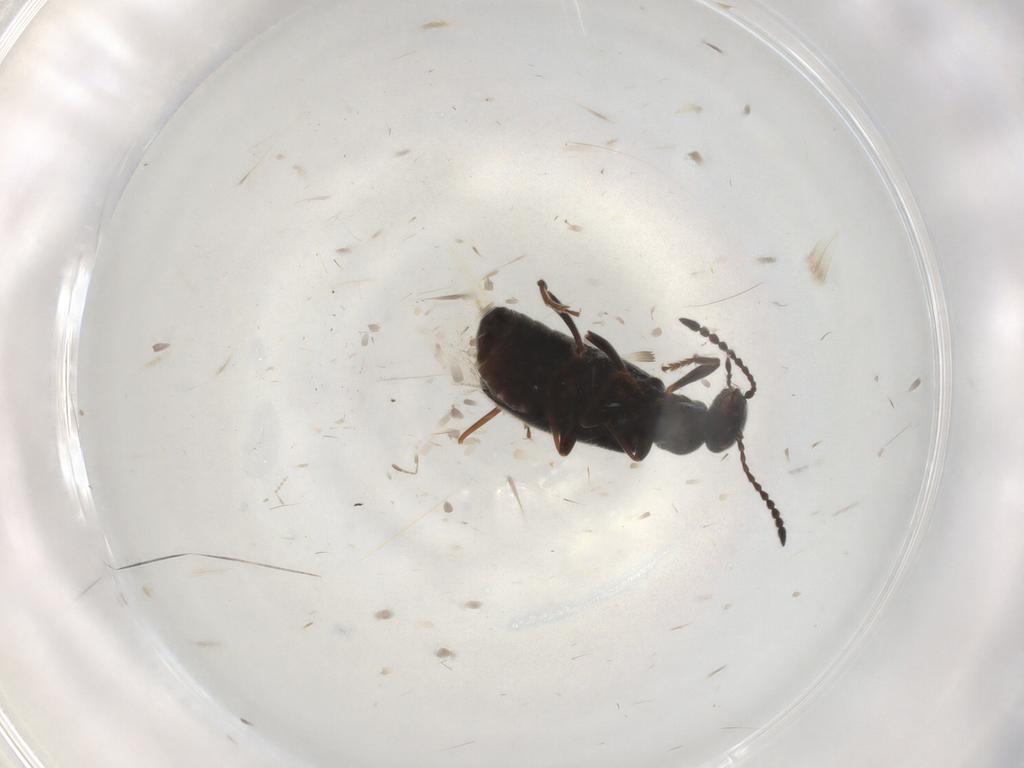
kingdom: Animalia
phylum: Arthropoda
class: Insecta
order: Coleoptera
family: Anthicidae
